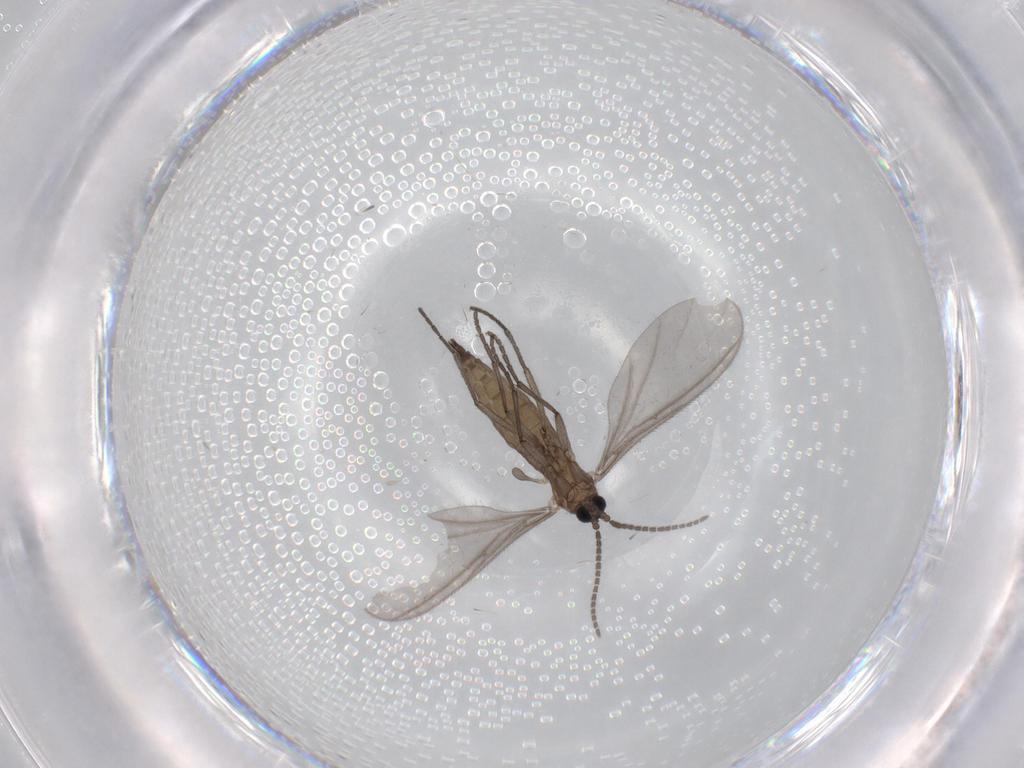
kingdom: Animalia
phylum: Arthropoda
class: Insecta
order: Diptera
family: Sciaridae
